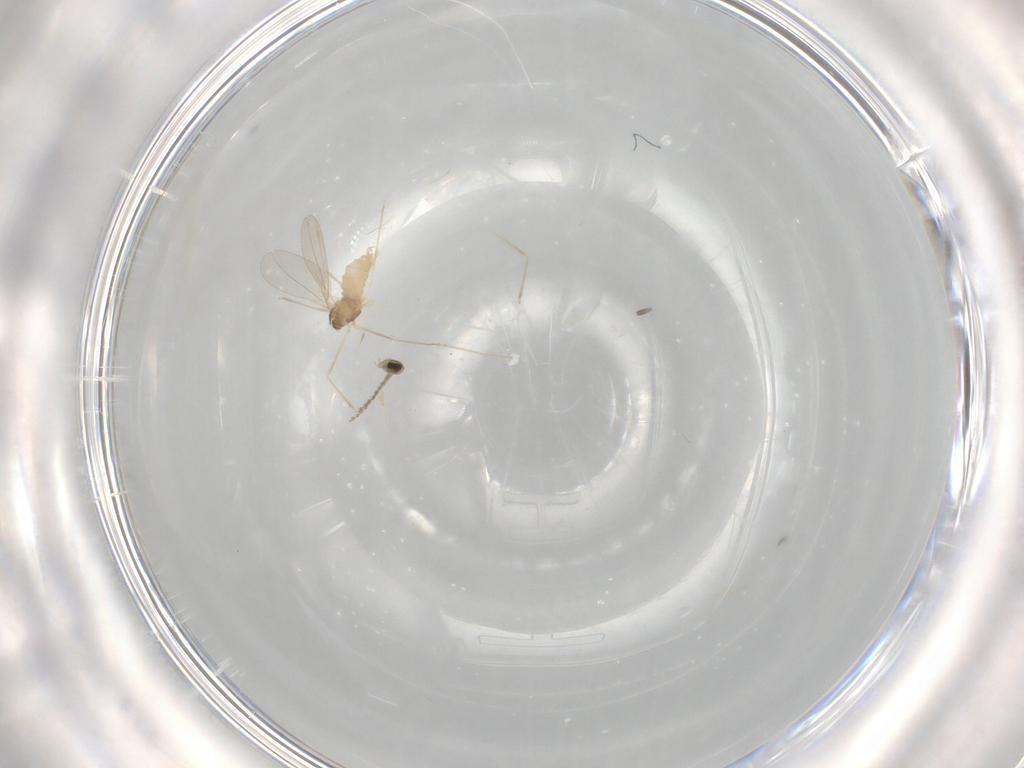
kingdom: Animalia
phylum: Arthropoda
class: Insecta
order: Diptera
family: Cecidomyiidae
